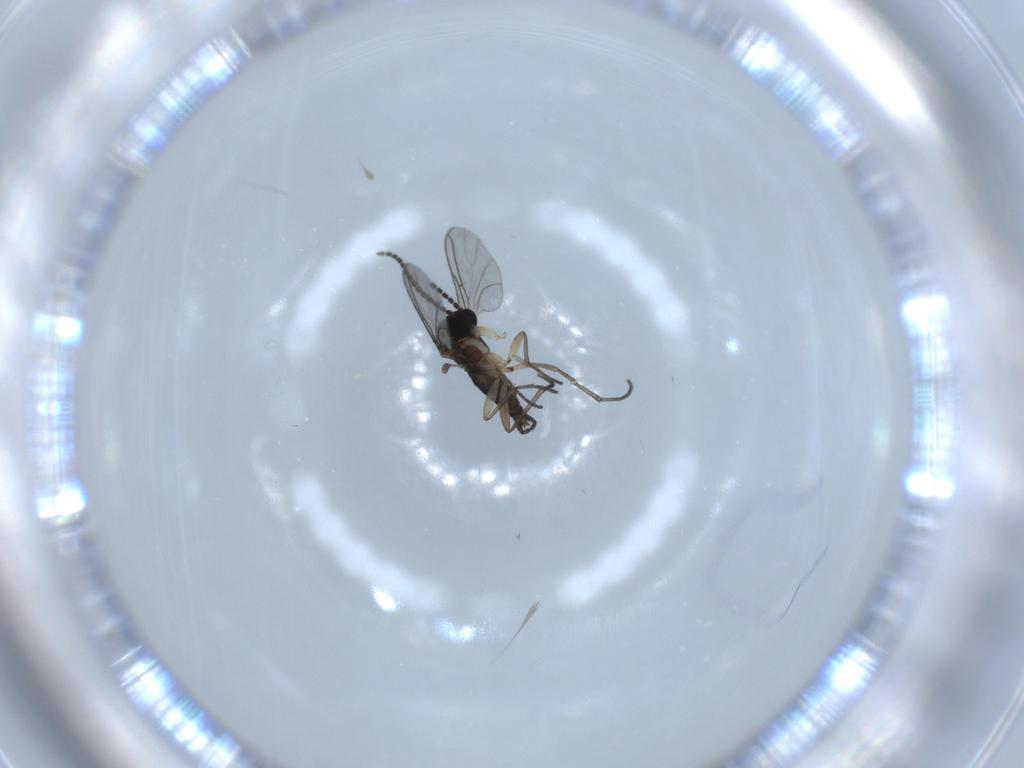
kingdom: Animalia
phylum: Arthropoda
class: Insecta
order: Diptera
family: Sciaridae
